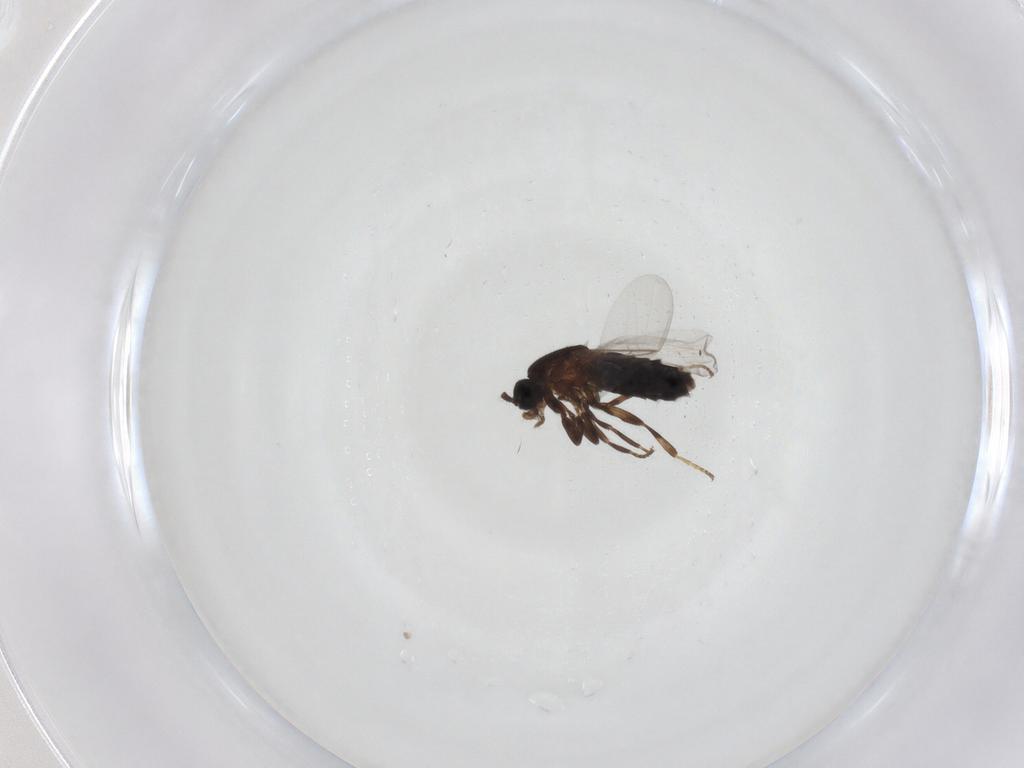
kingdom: Animalia
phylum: Arthropoda
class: Insecta
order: Diptera
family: Scatopsidae
